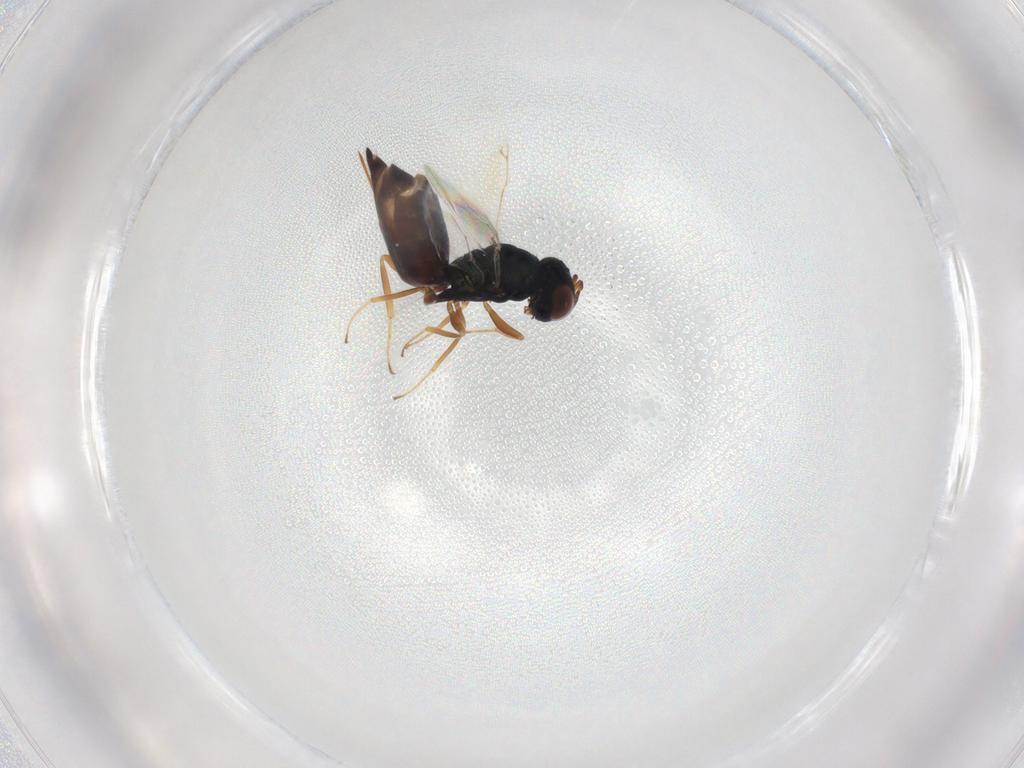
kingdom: Animalia
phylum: Arthropoda
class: Insecta
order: Hymenoptera
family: Pteromalidae
